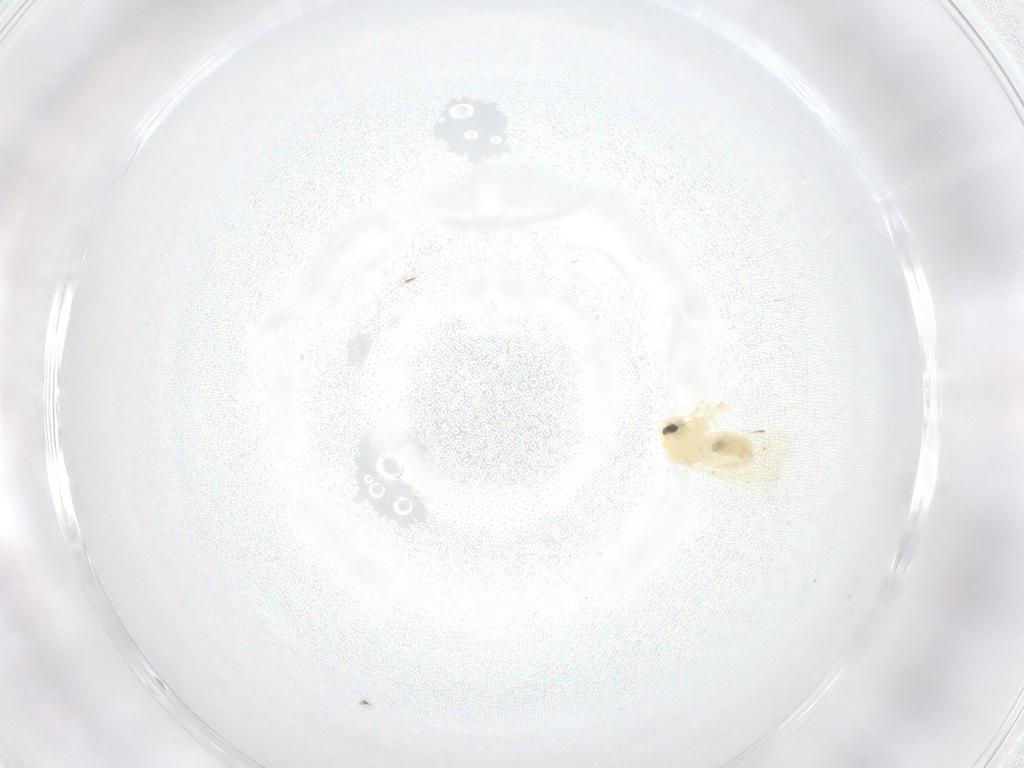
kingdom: Animalia
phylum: Arthropoda
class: Insecta
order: Hemiptera
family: Aleyrodidae
